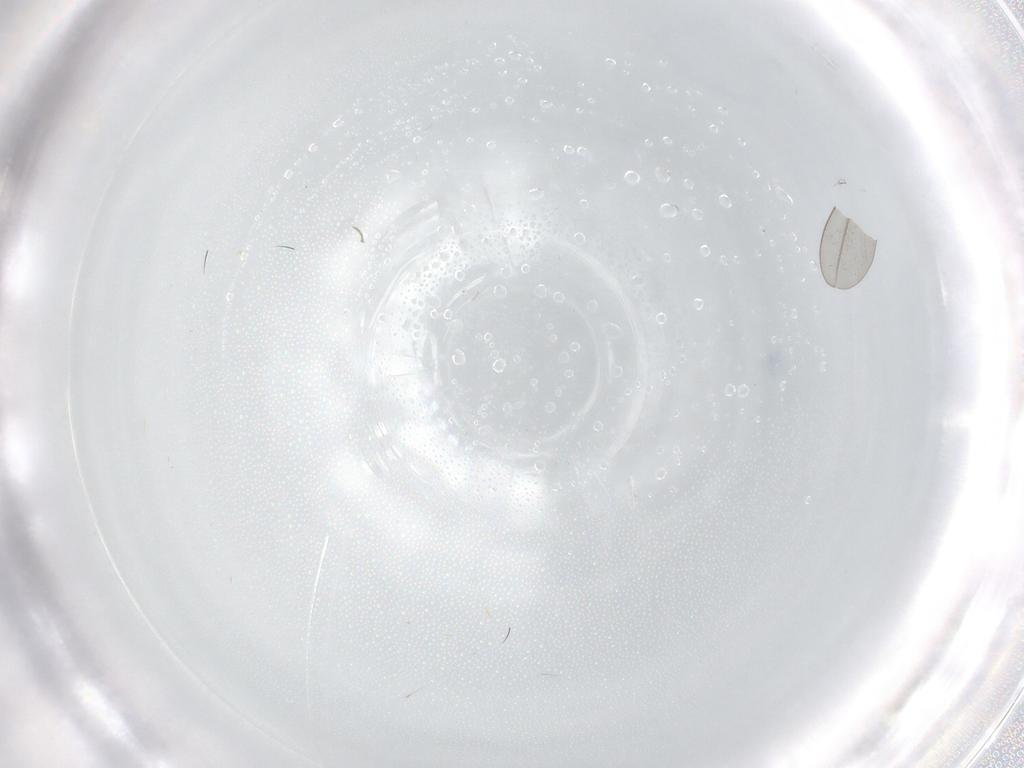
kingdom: Animalia
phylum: Arthropoda
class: Insecta
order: Diptera
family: Cecidomyiidae
